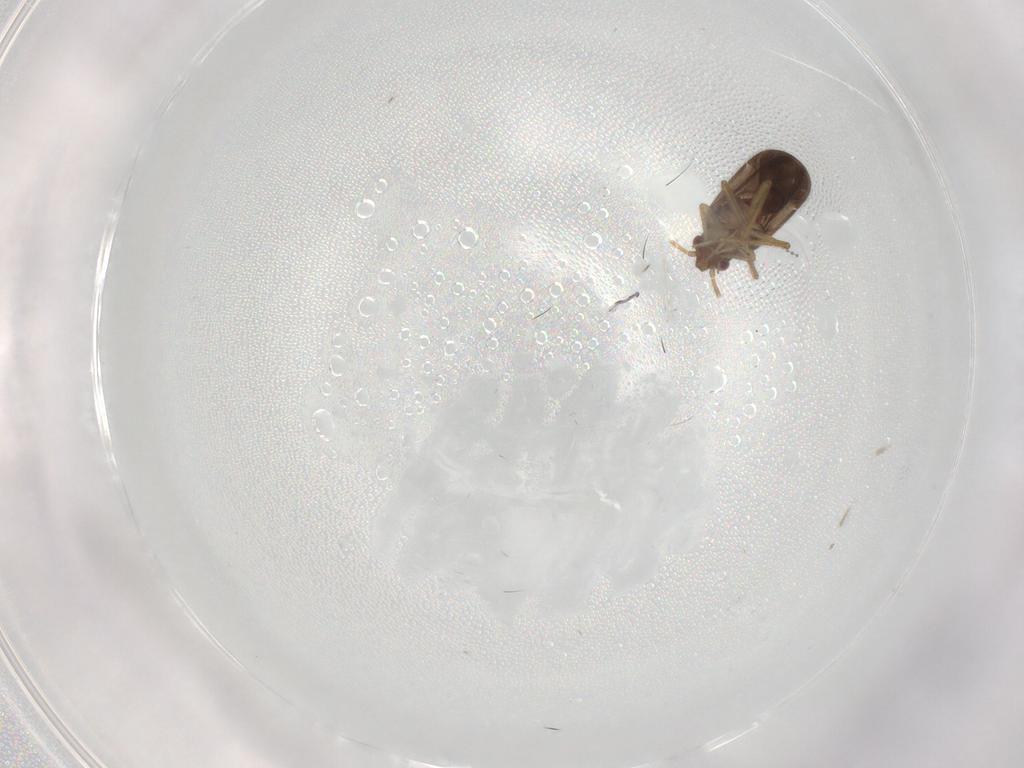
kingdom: Animalia
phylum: Arthropoda
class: Insecta
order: Hemiptera
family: Ceratocombidae
